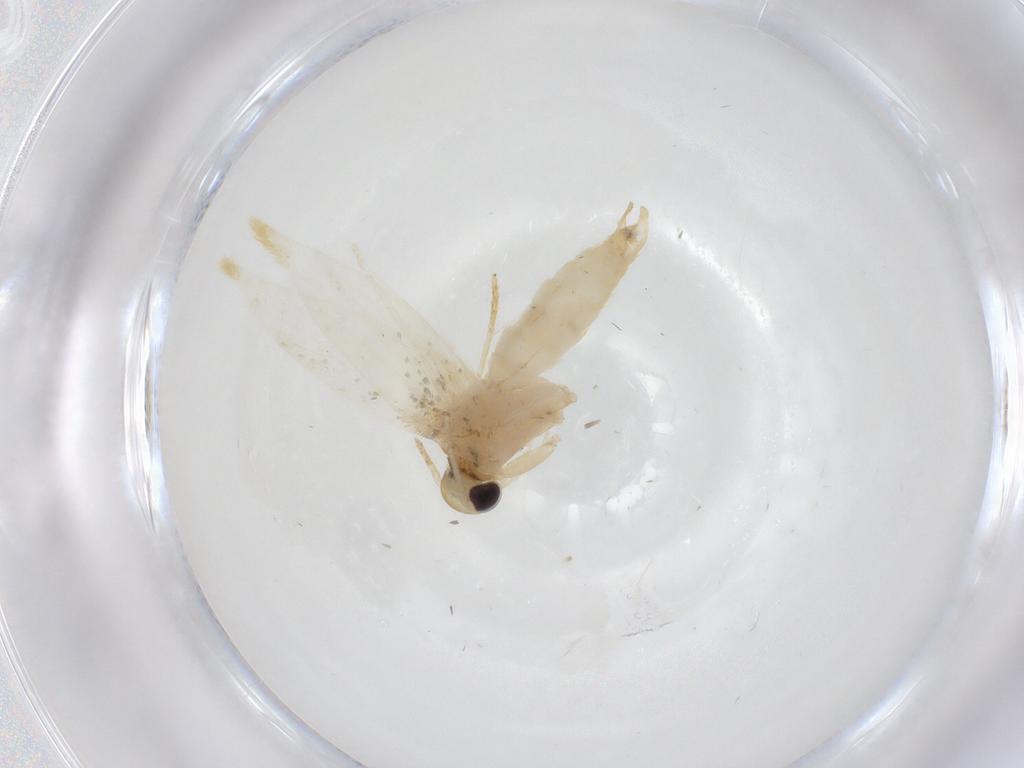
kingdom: Animalia
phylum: Arthropoda
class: Insecta
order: Lepidoptera
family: Erebidae
